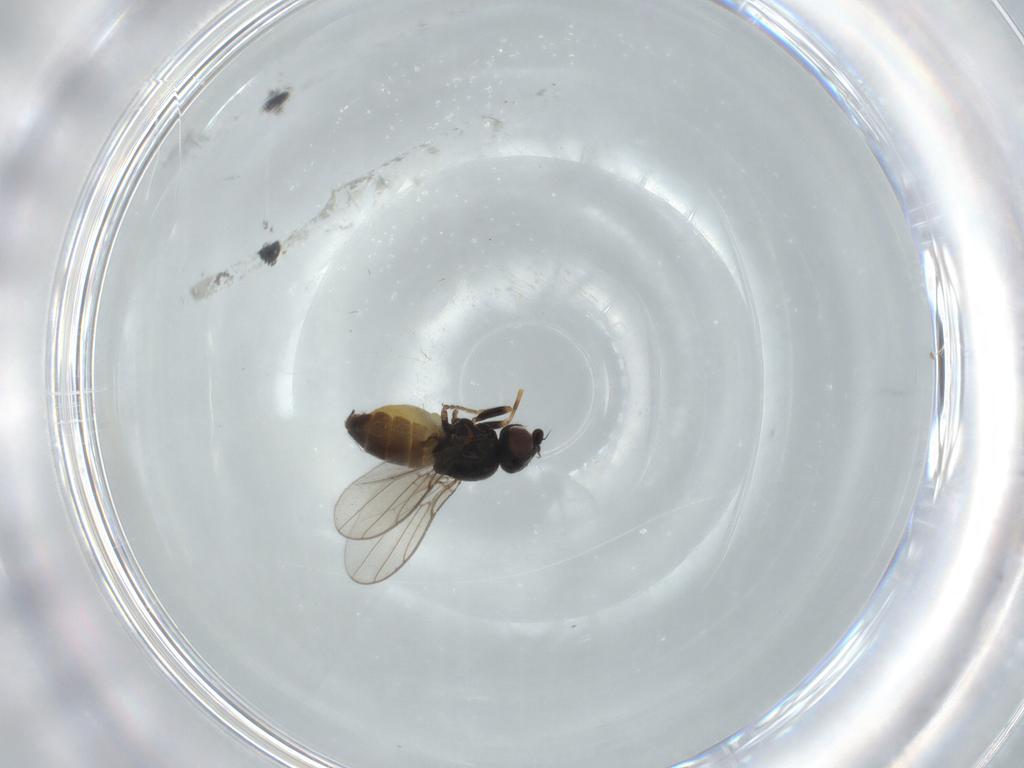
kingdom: Animalia
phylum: Arthropoda
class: Insecta
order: Diptera
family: Chloropidae
